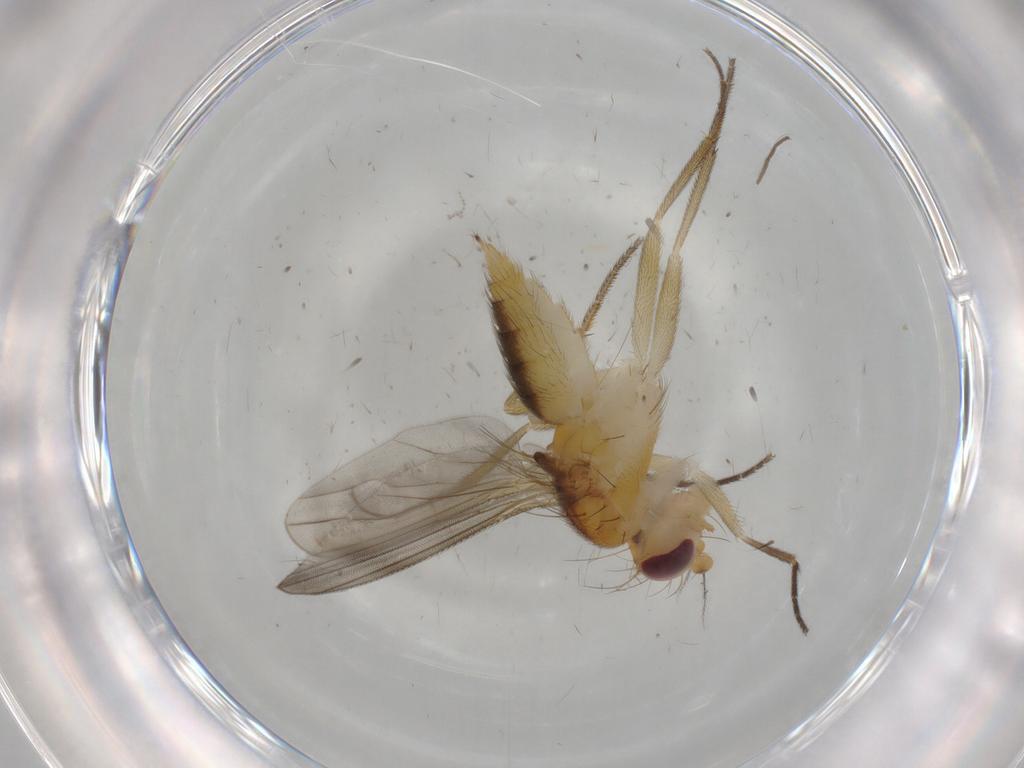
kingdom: Animalia
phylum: Arthropoda
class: Insecta
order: Diptera
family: Clusiidae
